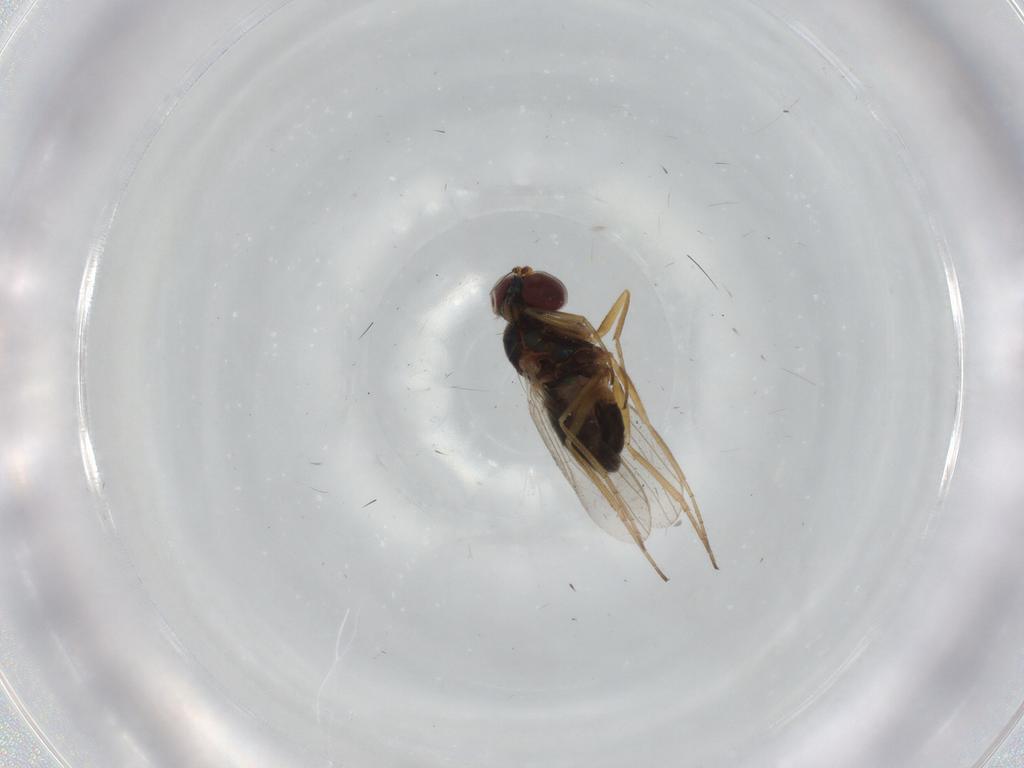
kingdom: Animalia
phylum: Arthropoda
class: Insecta
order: Diptera
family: Dolichopodidae
